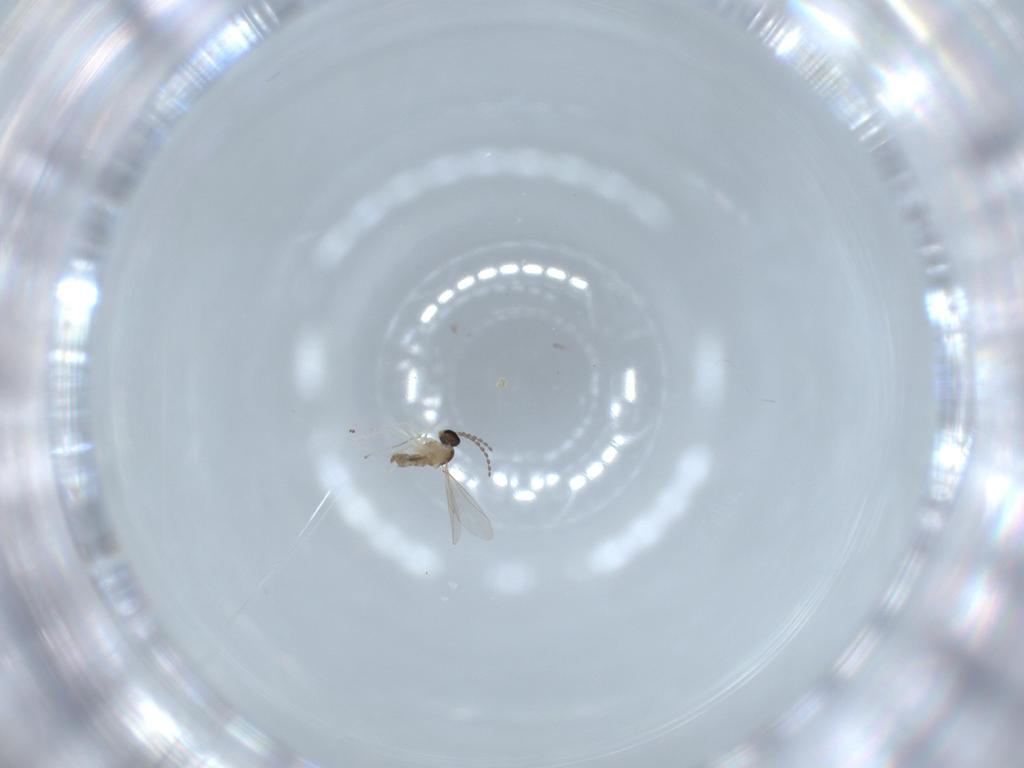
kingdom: Animalia
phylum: Arthropoda
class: Insecta
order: Diptera
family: Cecidomyiidae
